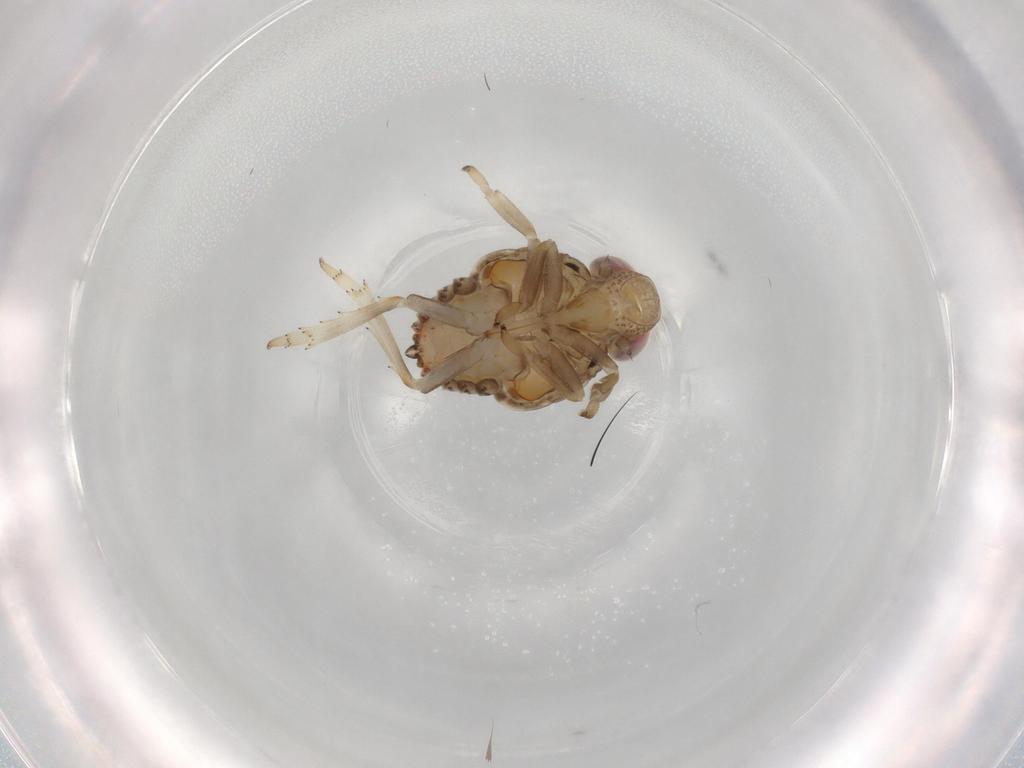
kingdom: Animalia
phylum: Arthropoda
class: Insecta
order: Hemiptera
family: Issidae
